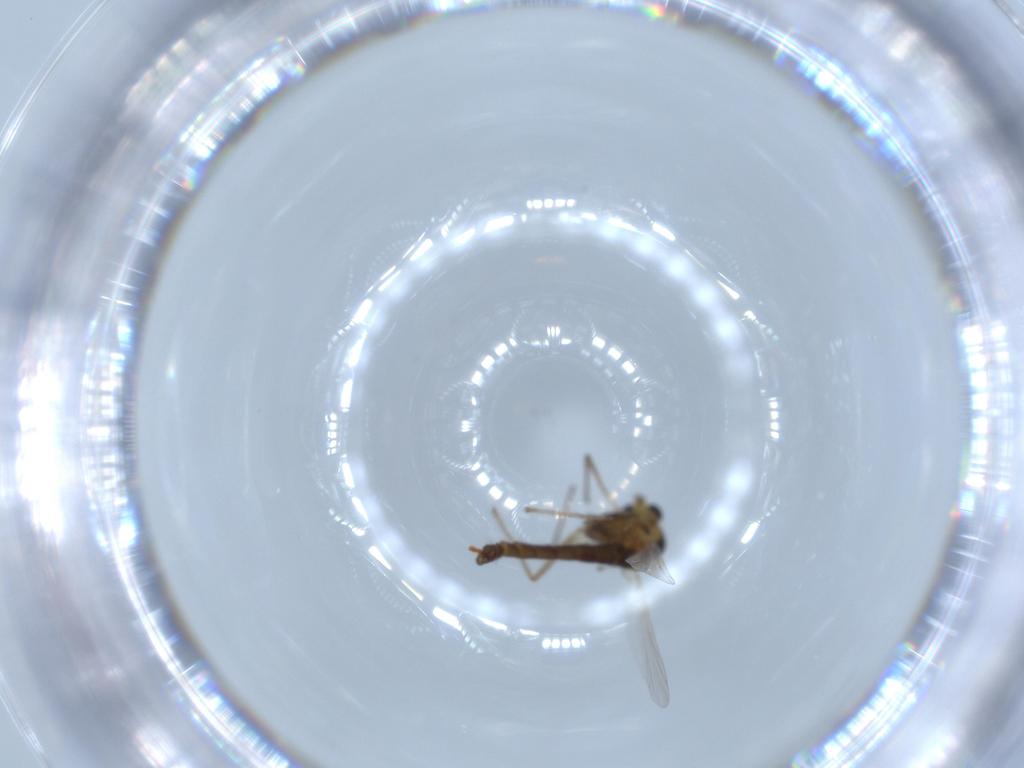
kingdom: Animalia
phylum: Arthropoda
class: Insecta
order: Diptera
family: Chironomidae
